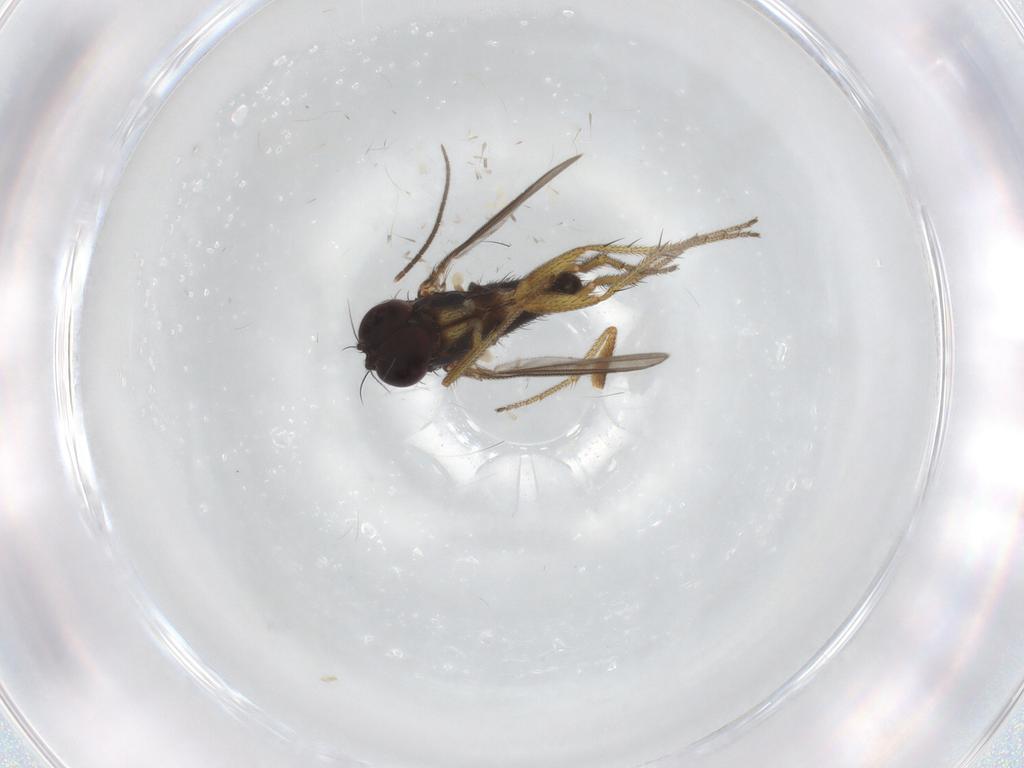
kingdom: Animalia
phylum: Arthropoda
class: Insecta
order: Diptera
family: Chironomidae
